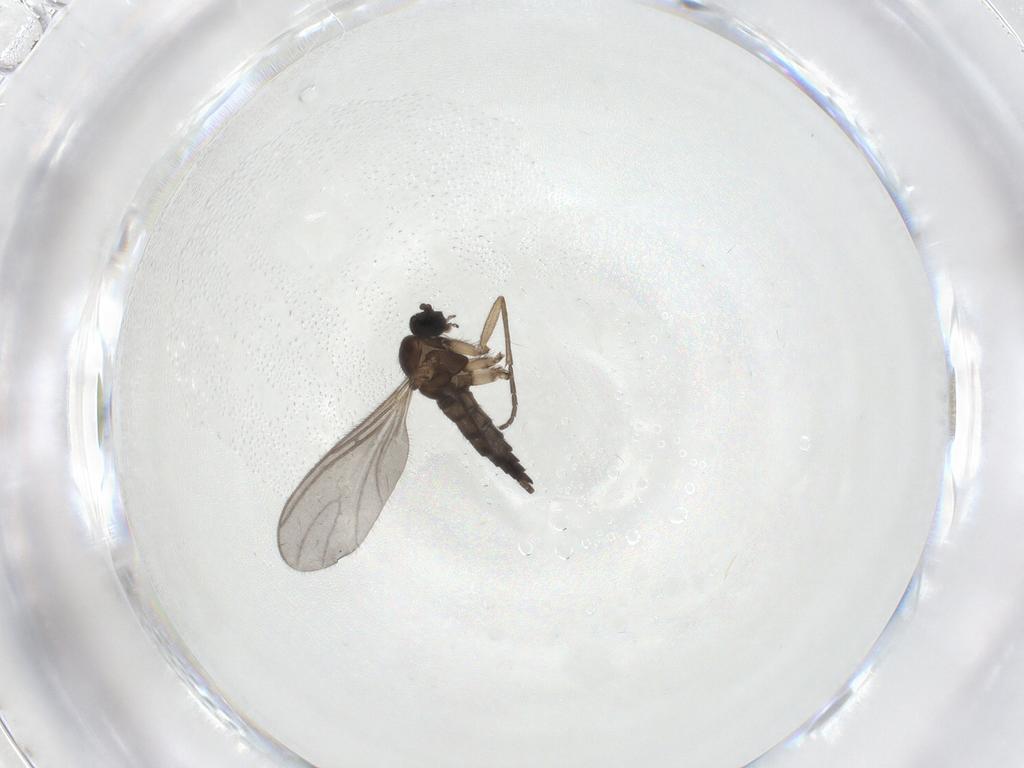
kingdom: Animalia
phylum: Arthropoda
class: Insecta
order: Diptera
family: Sciaridae
